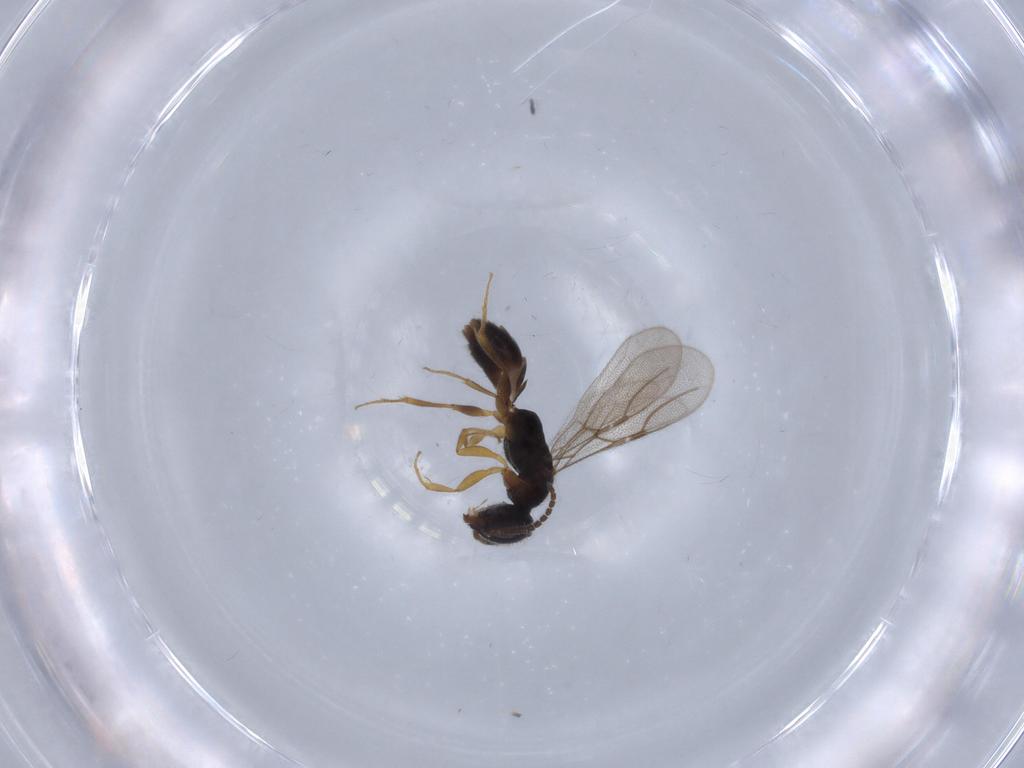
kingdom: Animalia
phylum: Arthropoda
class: Insecta
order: Hymenoptera
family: Bethylidae
